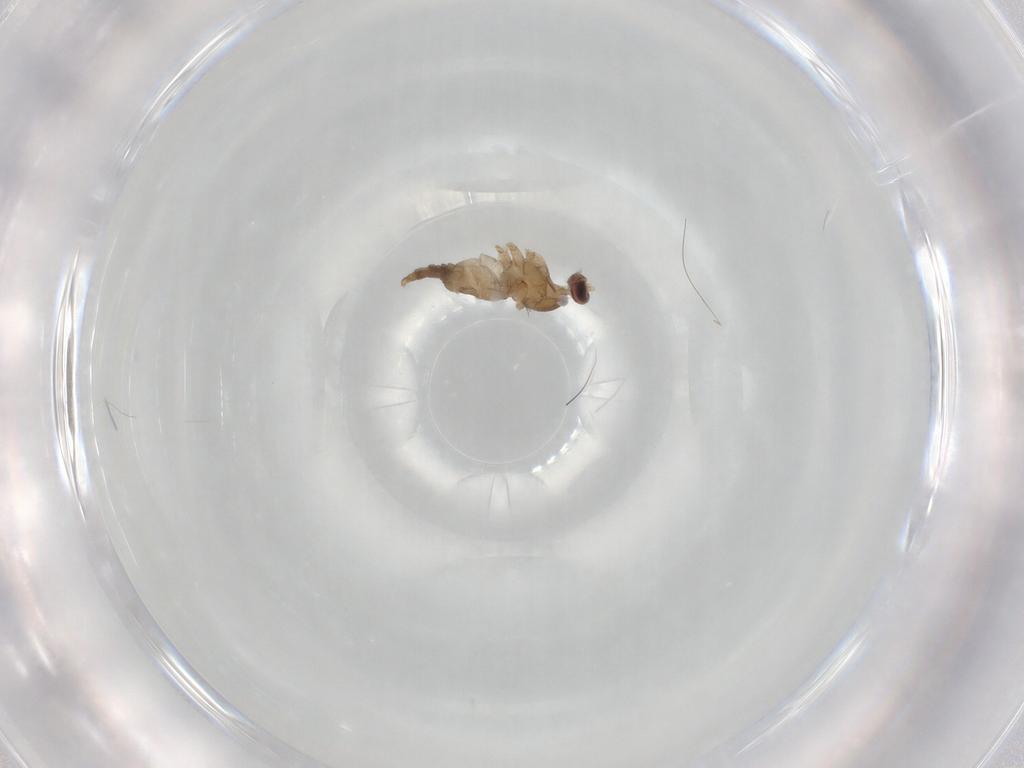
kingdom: Animalia
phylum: Arthropoda
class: Insecta
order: Diptera
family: Cecidomyiidae
